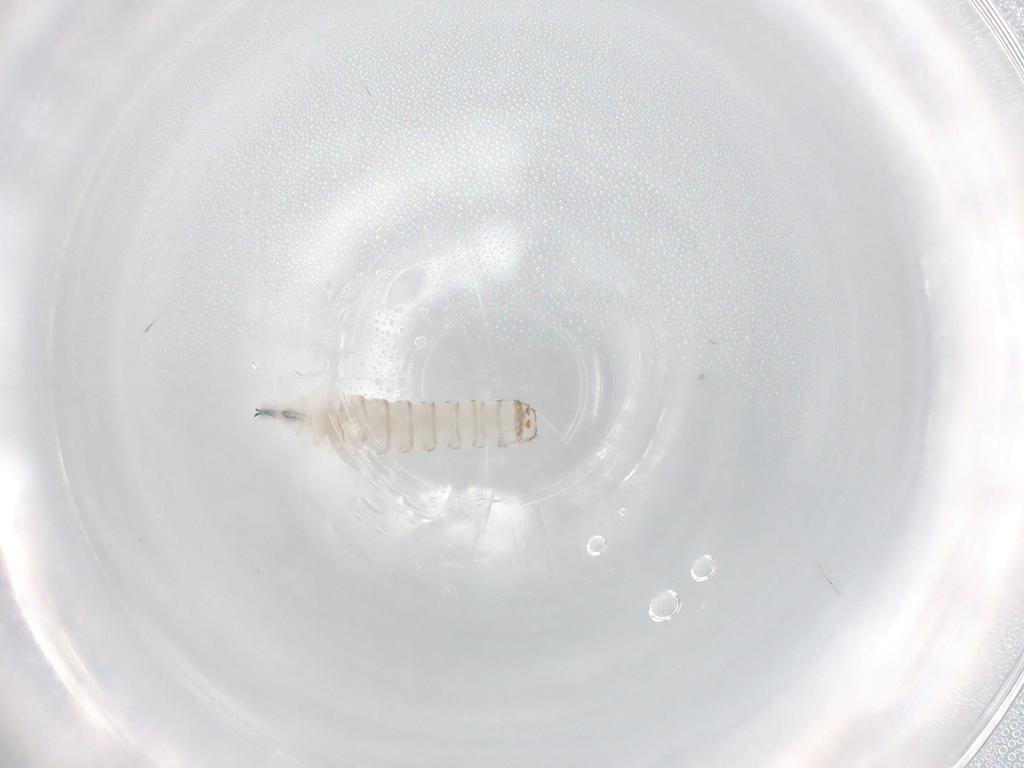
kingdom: Animalia
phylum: Arthropoda
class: Insecta
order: Diptera
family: Sarcophagidae
